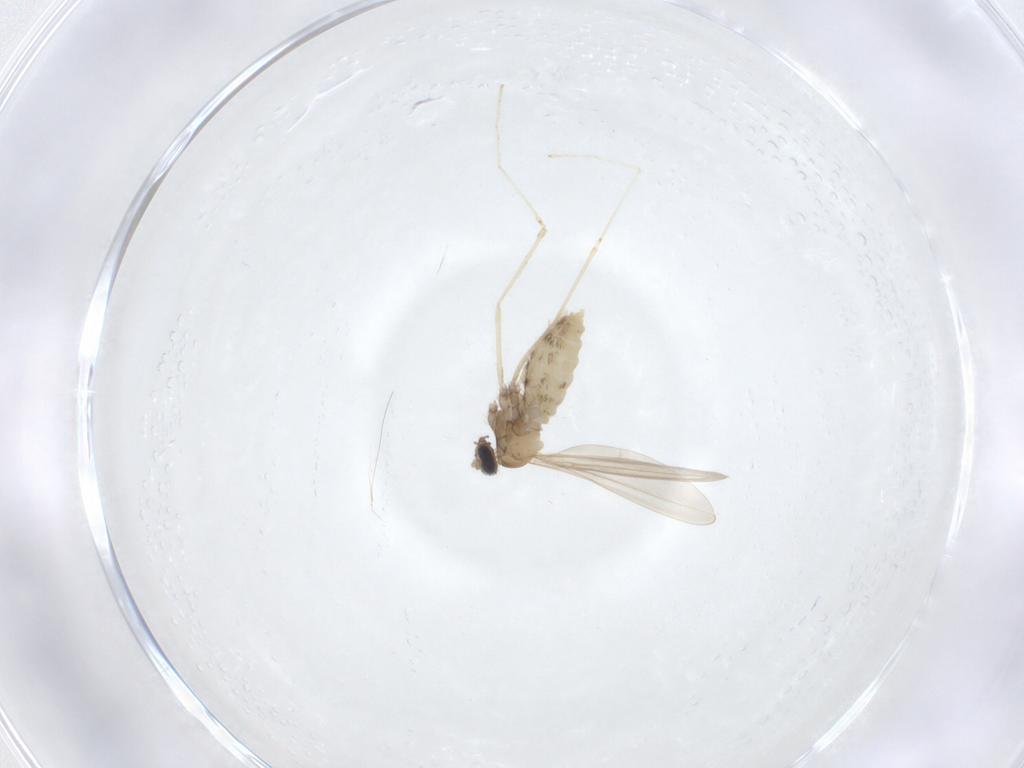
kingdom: Animalia
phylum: Arthropoda
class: Insecta
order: Diptera
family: Cecidomyiidae
